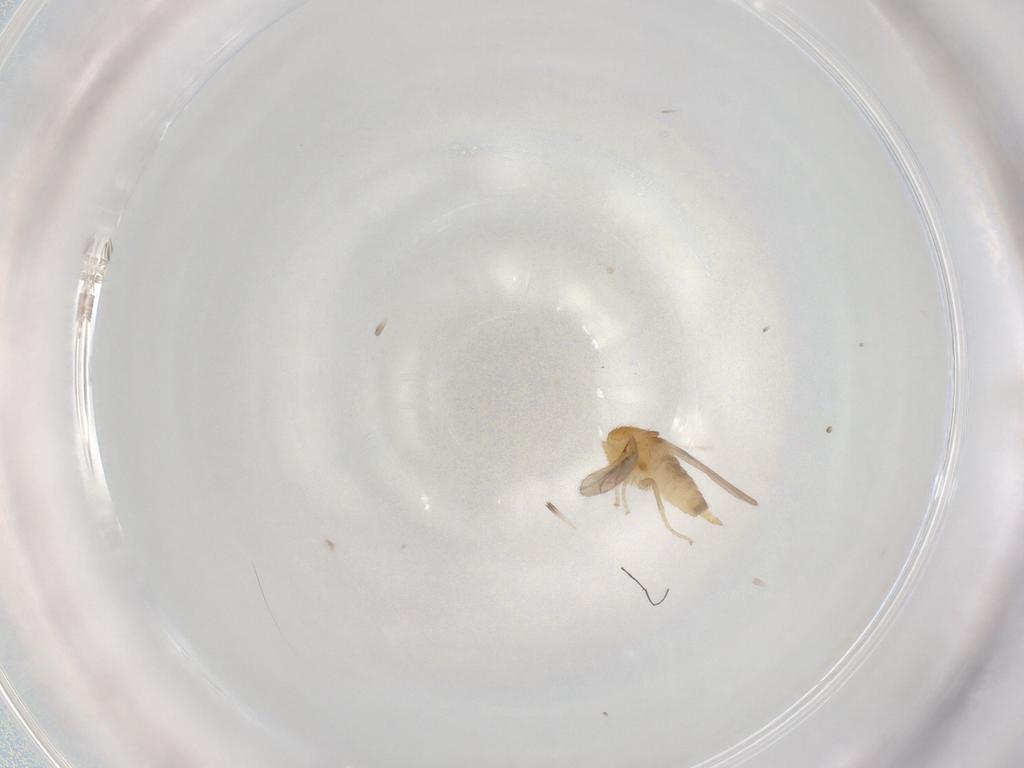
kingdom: Animalia
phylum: Arthropoda
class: Insecta
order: Diptera
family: Hybotidae
